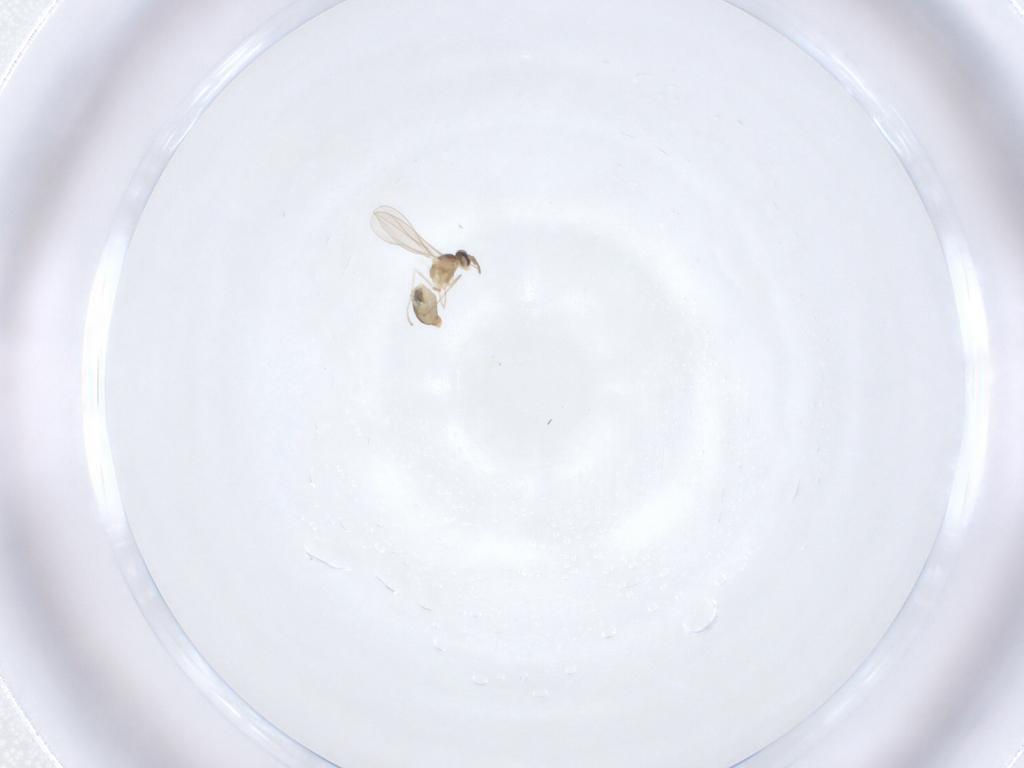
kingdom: Animalia
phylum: Arthropoda
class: Insecta
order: Diptera
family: Cecidomyiidae
